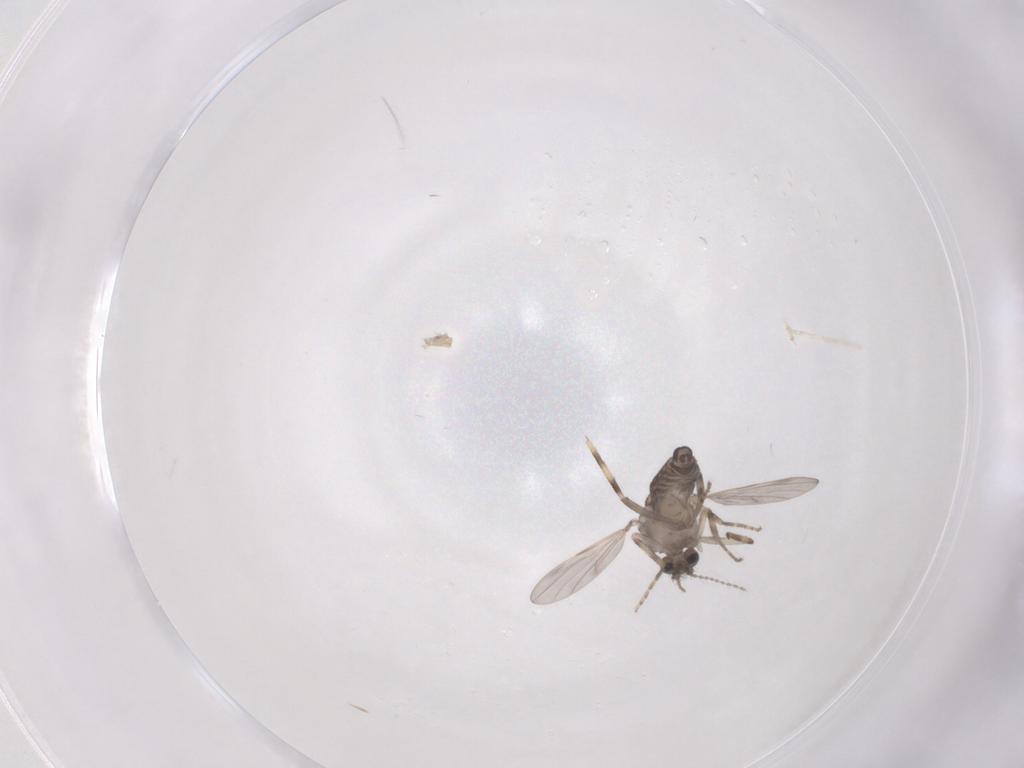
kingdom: Animalia
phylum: Arthropoda
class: Insecta
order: Diptera
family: Ceratopogonidae
